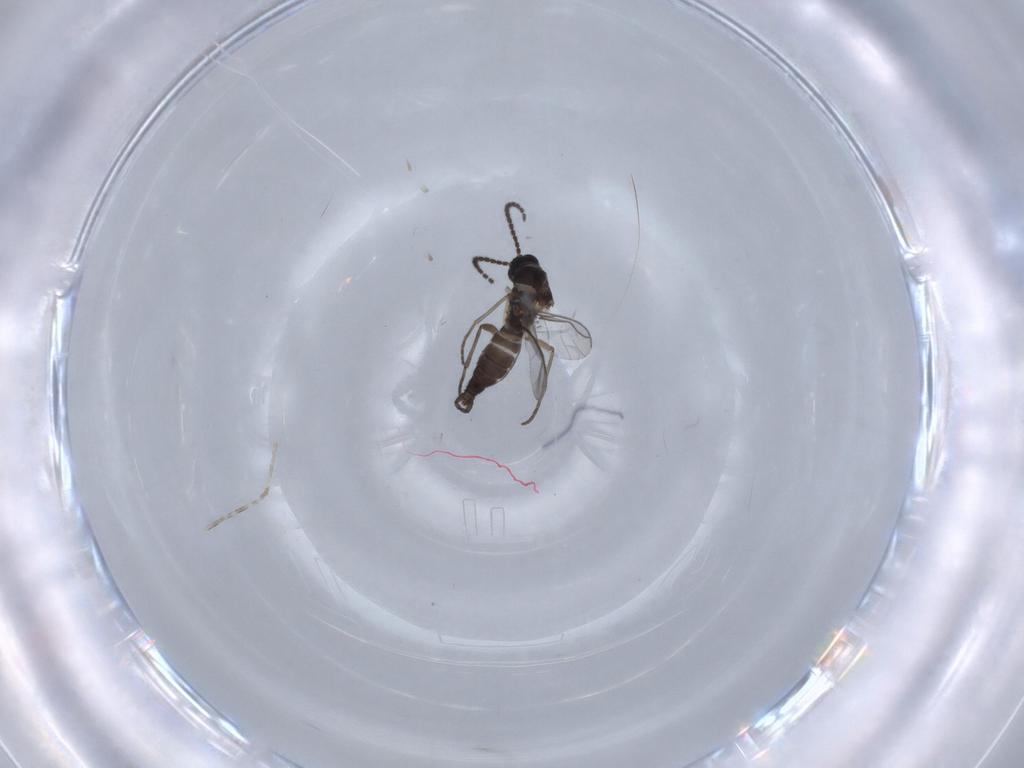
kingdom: Animalia
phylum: Arthropoda
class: Insecta
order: Diptera
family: Sciaridae
